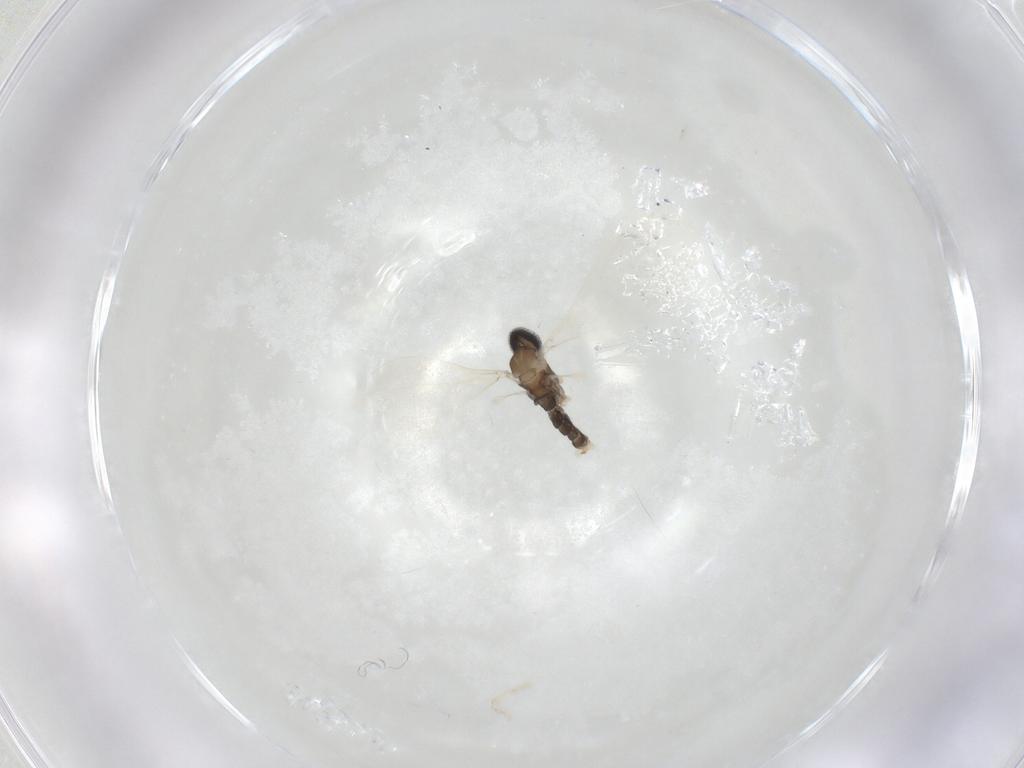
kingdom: Animalia
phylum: Arthropoda
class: Insecta
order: Diptera
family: Cecidomyiidae
